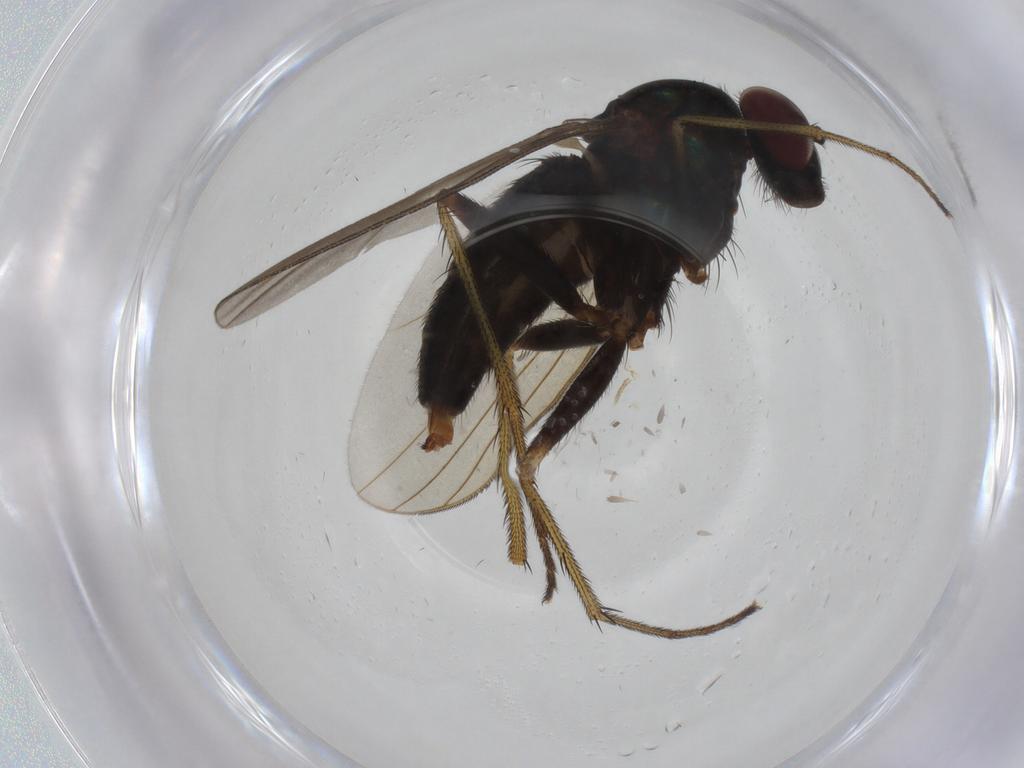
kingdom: Animalia
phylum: Arthropoda
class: Insecta
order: Diptera
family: Dolichopodidae
